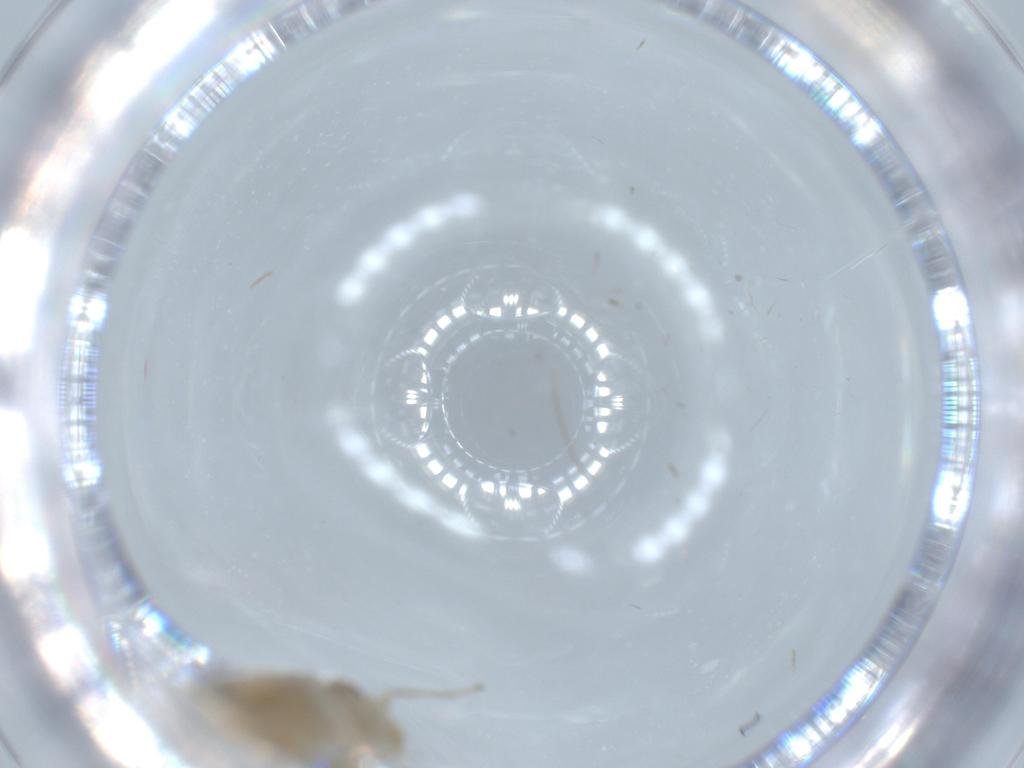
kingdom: Animalia
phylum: Arthropoda
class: Insecta
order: Psocodea
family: Caeciliusidae
